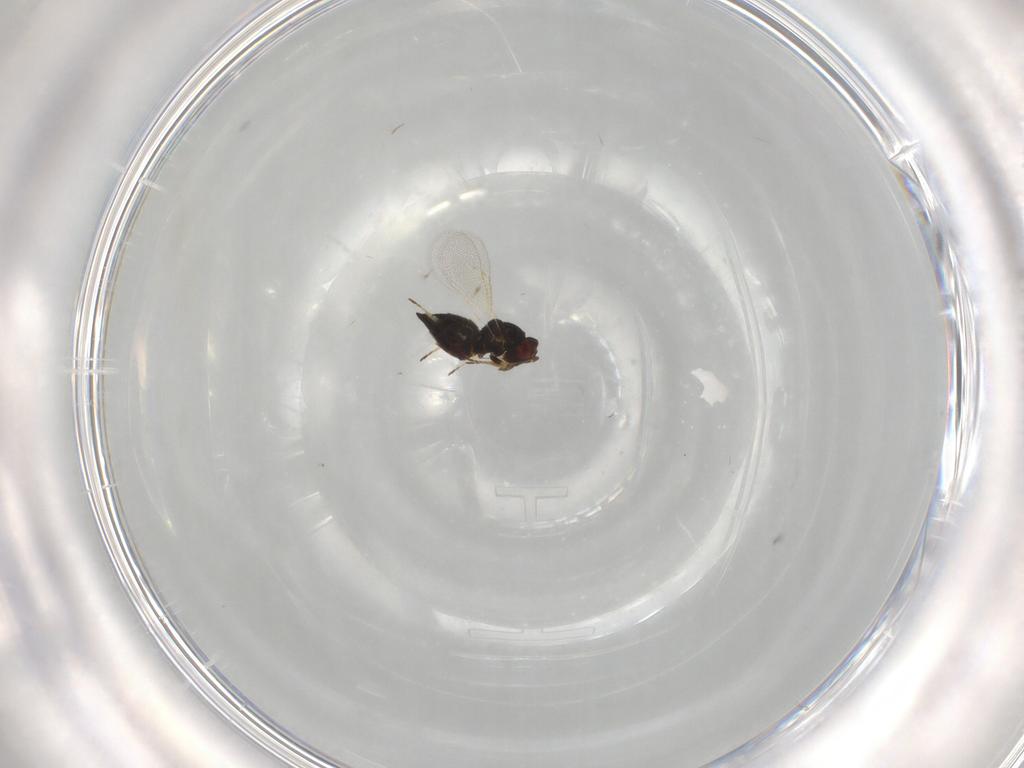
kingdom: Animalia
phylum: Arthropoda
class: Insecta
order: Hymenoptera
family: Eulophidae
